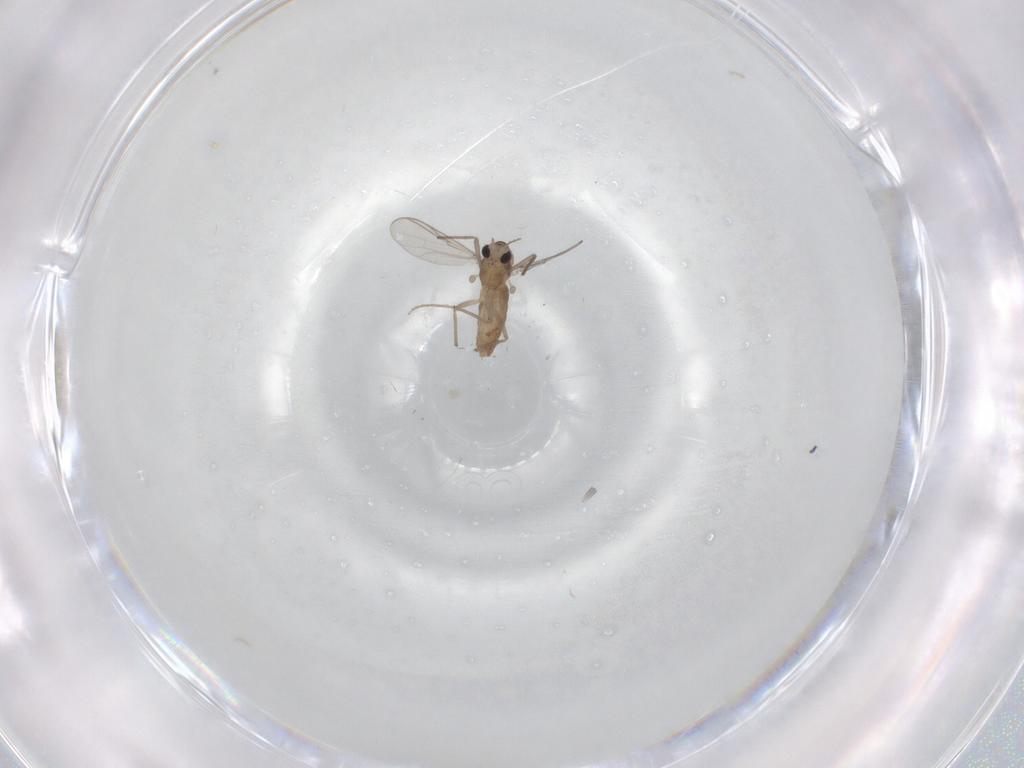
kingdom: Animalia
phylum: Arthropoda
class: Insecta
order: Diptera
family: Chironomidae
